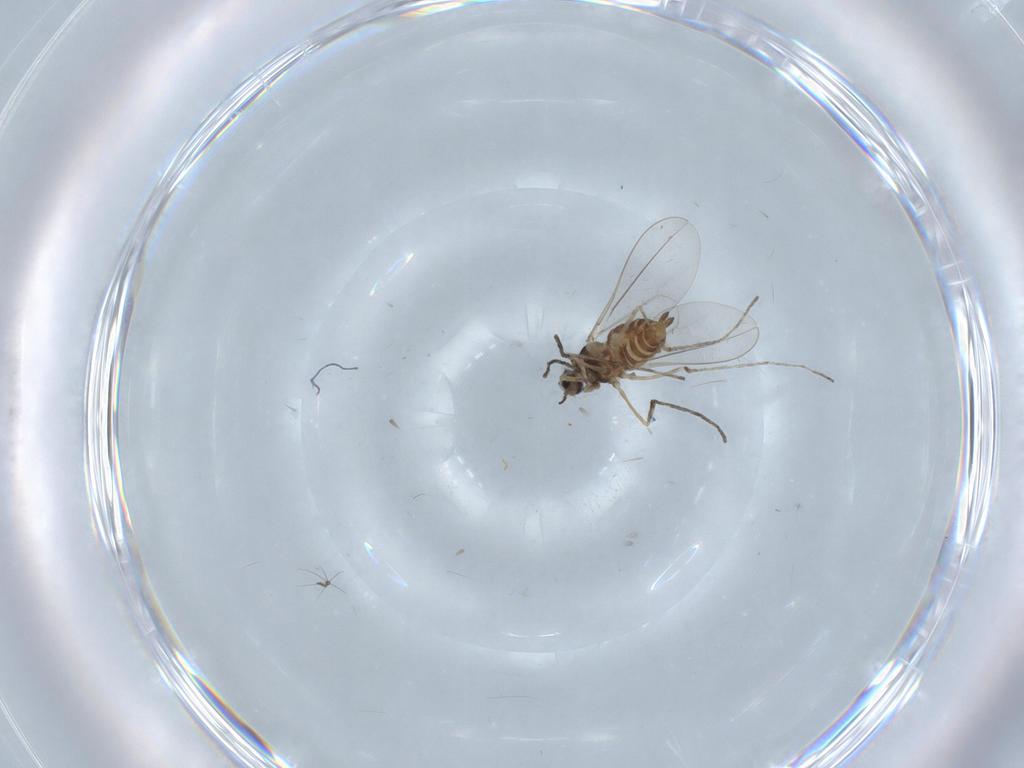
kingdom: Animalia
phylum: Arthropoda
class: Insecta
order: Diptera
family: Cecidomyiidae
